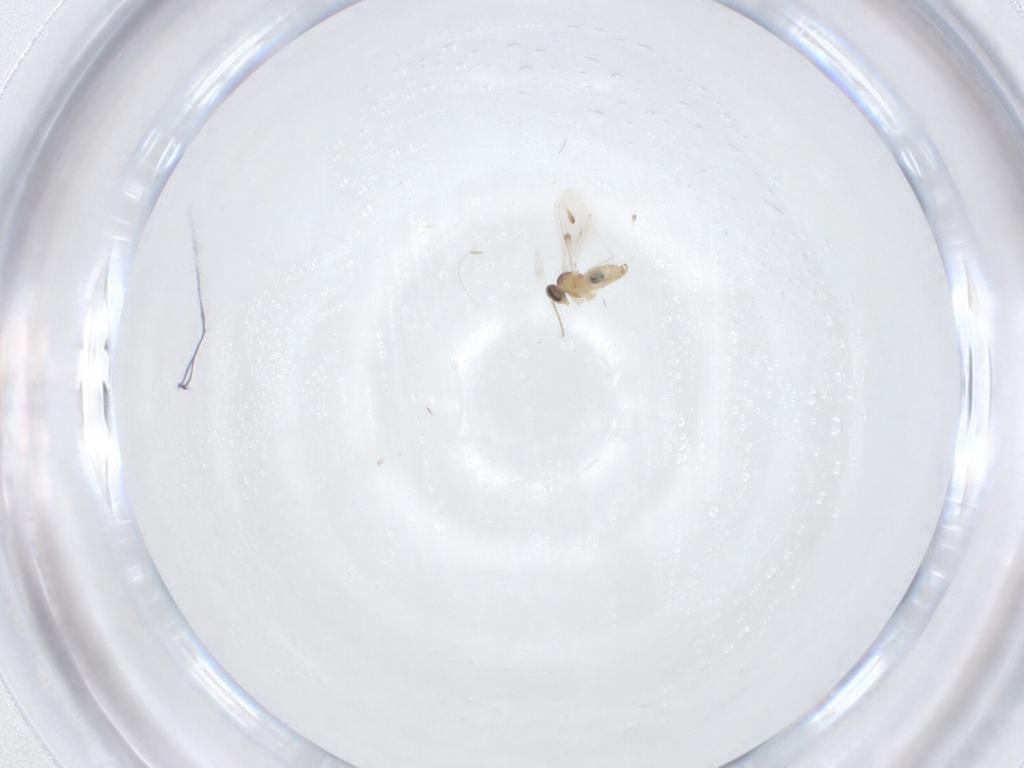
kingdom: Animalia
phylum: Arthropoda
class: Insecta
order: Diptera
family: Cecidomyiidae
